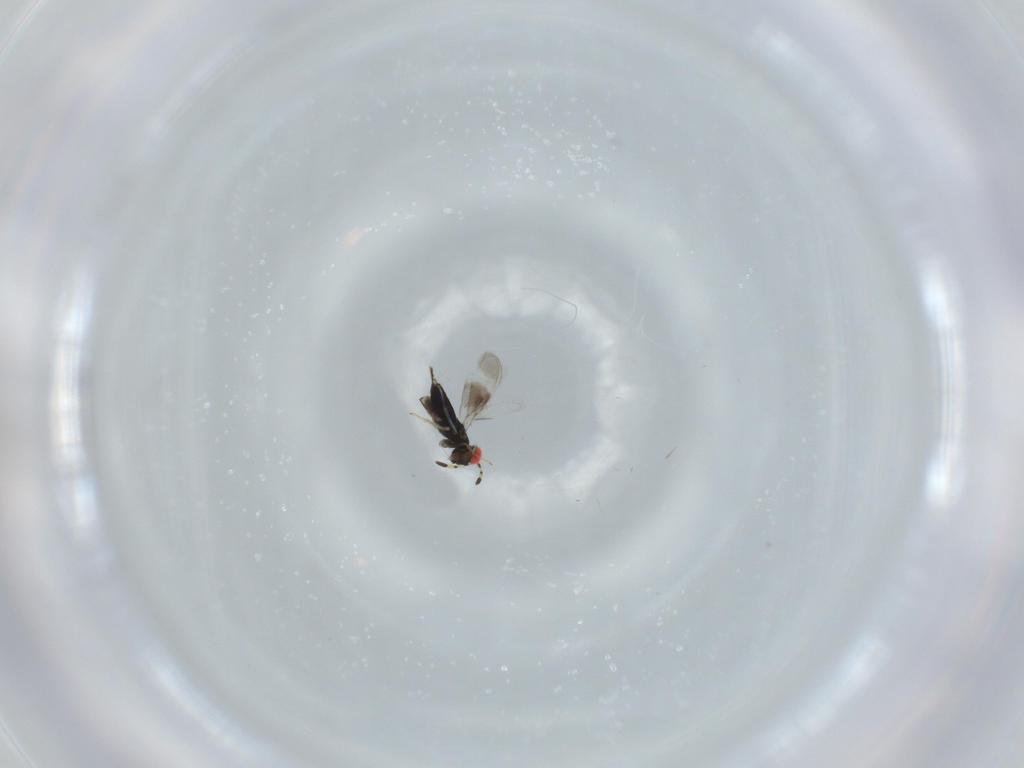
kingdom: Animalia
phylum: Arthropoda
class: Insecta
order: Hymenoptera
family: Azotidae
